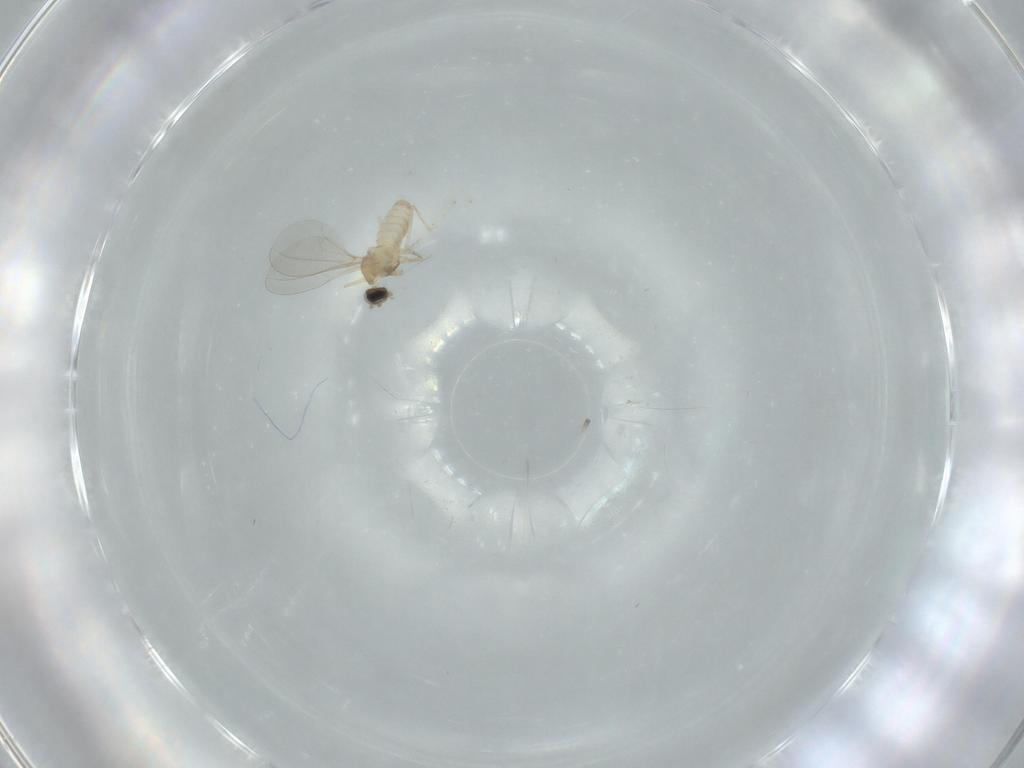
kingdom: Animalia
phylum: Arthropoda
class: Insecta
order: Diptera
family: Cecidomyiidae
